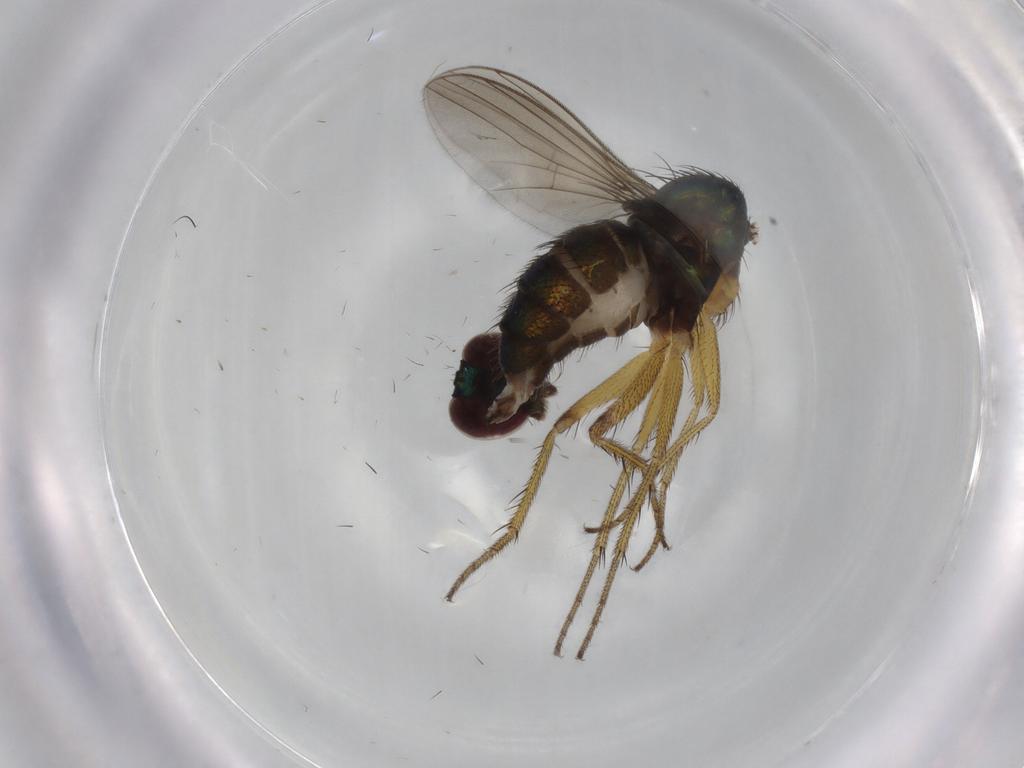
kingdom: Animalia
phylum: Arthropoda
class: Insecta
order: Diptera
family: Dolichopodidae
